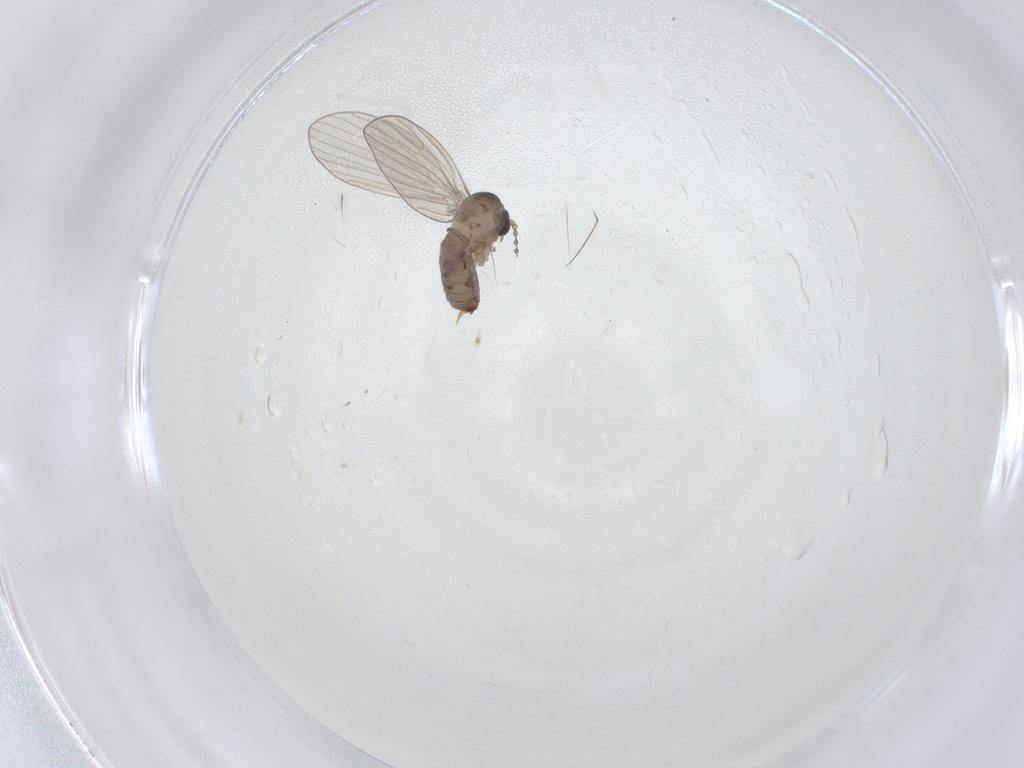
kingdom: Animalia
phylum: Arthropoda
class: Insecta
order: Diptera
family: Psychodidae
